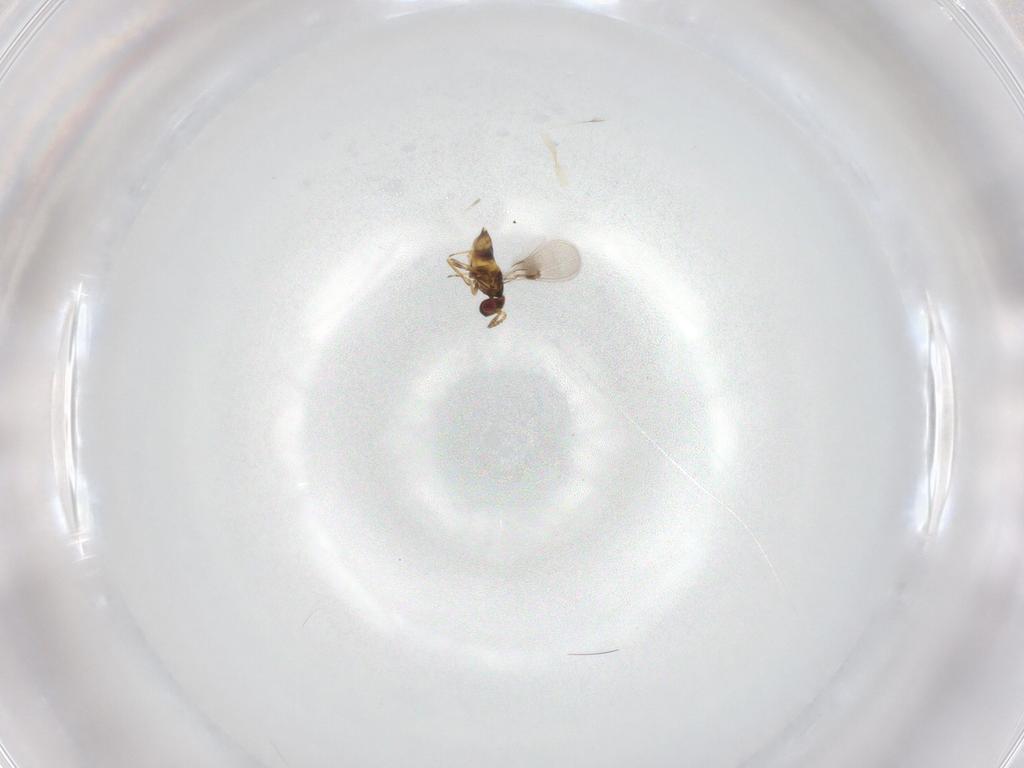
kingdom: Animalia
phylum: Arthropoda
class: Insecta
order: Hymenoptera
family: Trichogrammatidae
